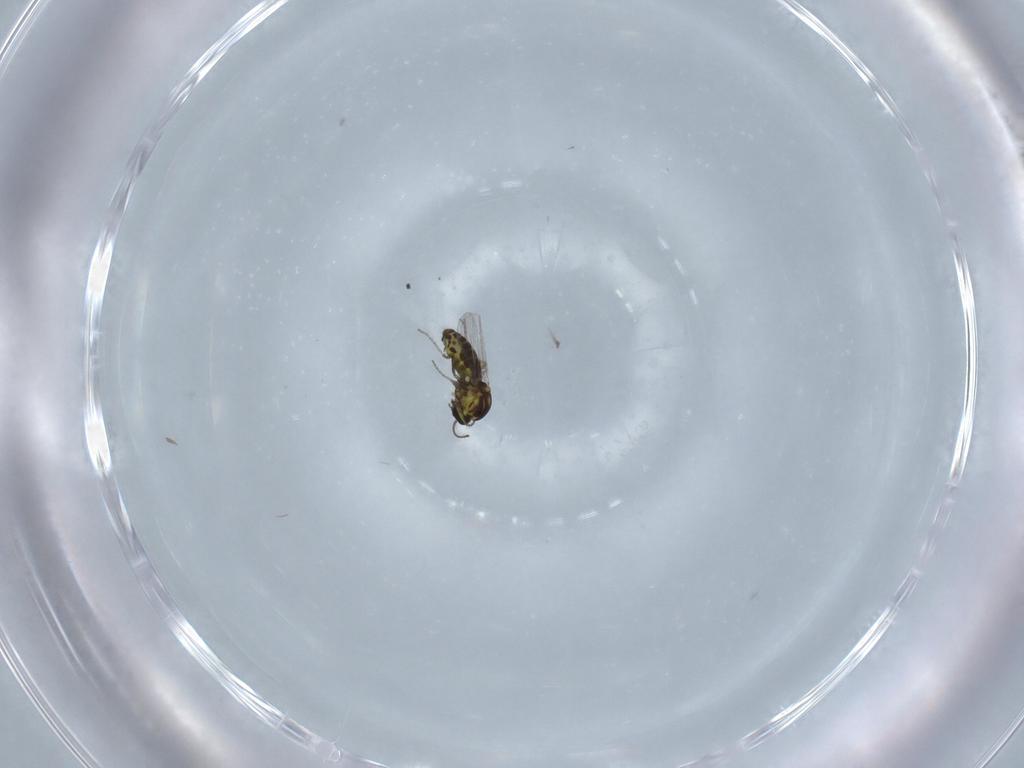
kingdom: Animalia
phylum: Arthropoda
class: Insecta
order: Diptera
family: Ceratopogonidae
